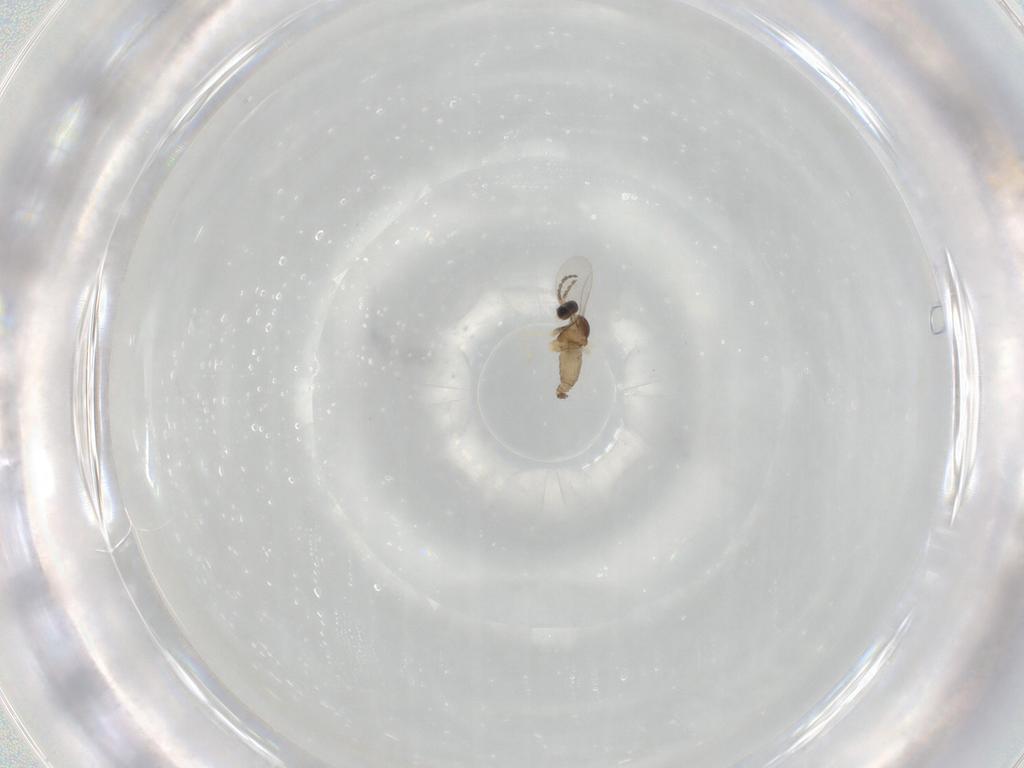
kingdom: Animalia
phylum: Arthropoda
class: Insecta
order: Diptera
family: Cecidomyiidae
